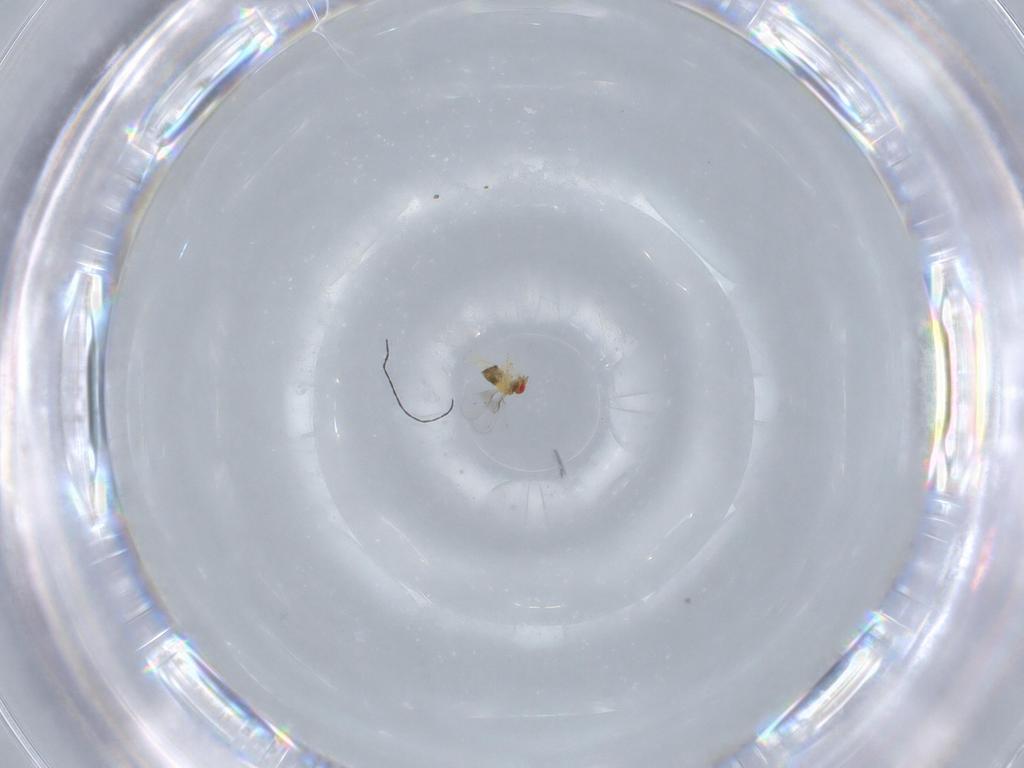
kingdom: Animalia
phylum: Arthropoda
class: Insecta
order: Hymenoptera
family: Trichogrammatidae
